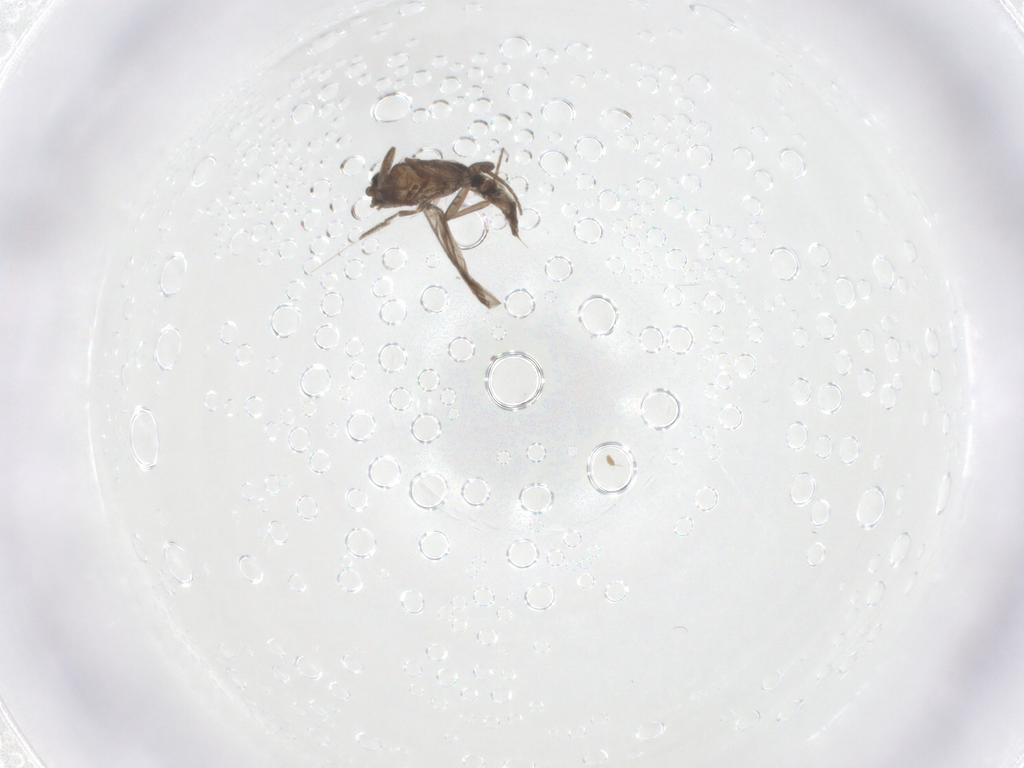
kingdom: Animalia
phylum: Arthropoda
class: Insecta
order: Diptera
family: Phoridae
